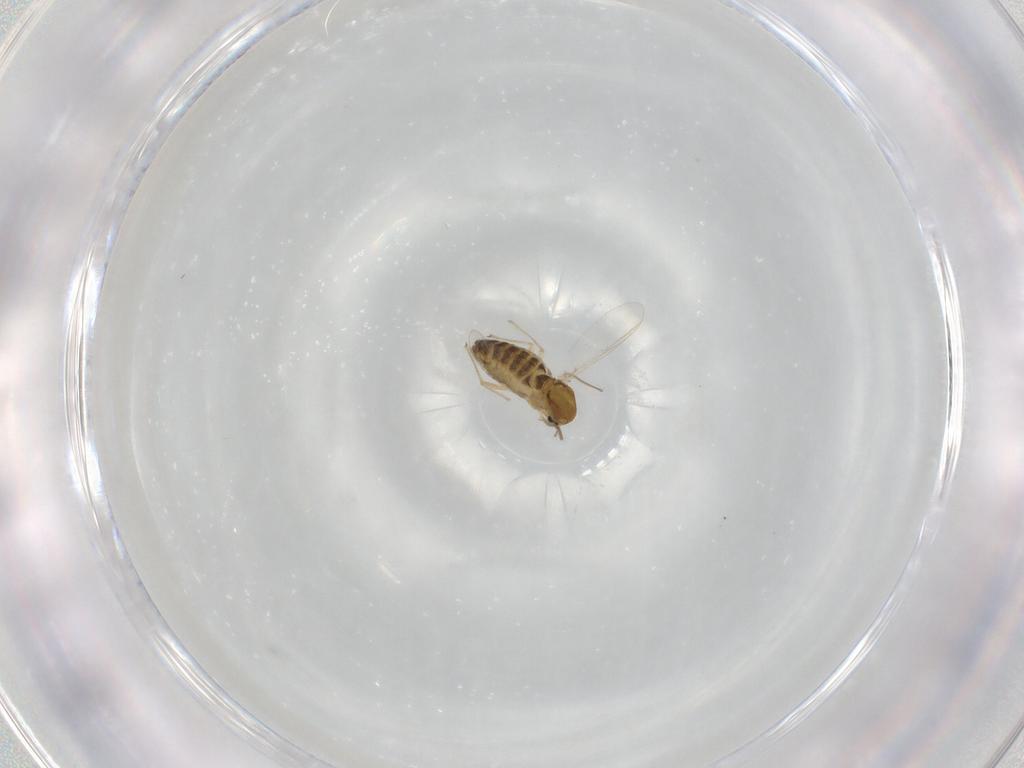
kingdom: Animalia
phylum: Arthropoda
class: Insecta
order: Diptera
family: Chironomidae
